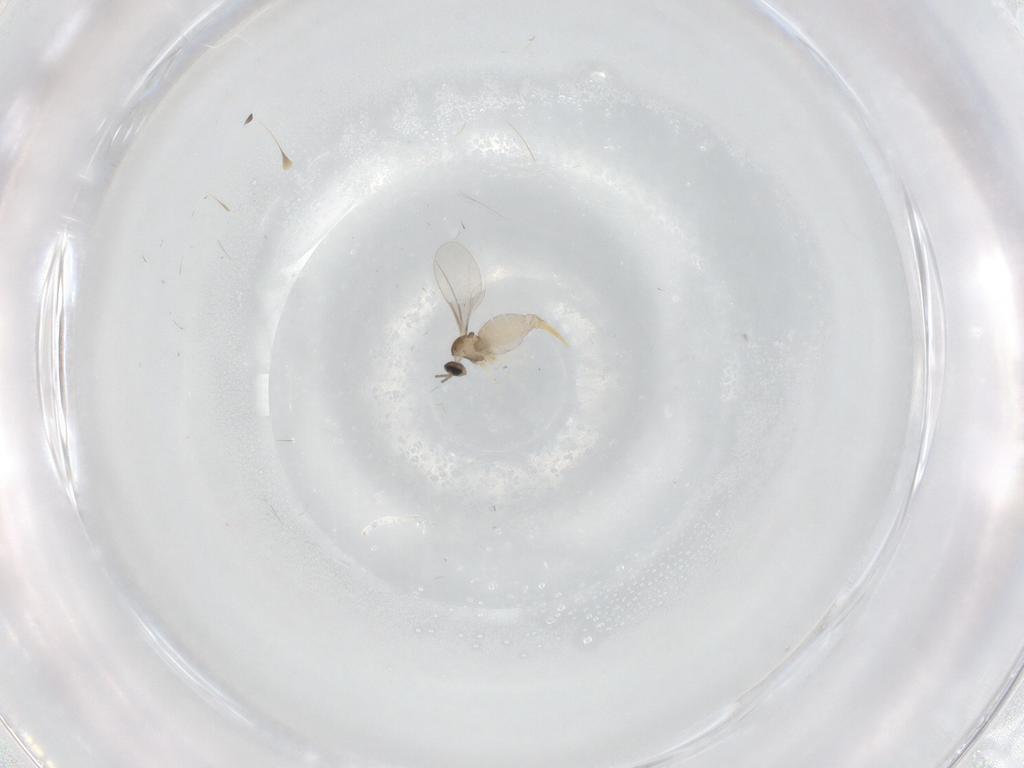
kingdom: Animalia
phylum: Arthropoda
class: Insecta
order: Diptera
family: Cecidomyiidae
